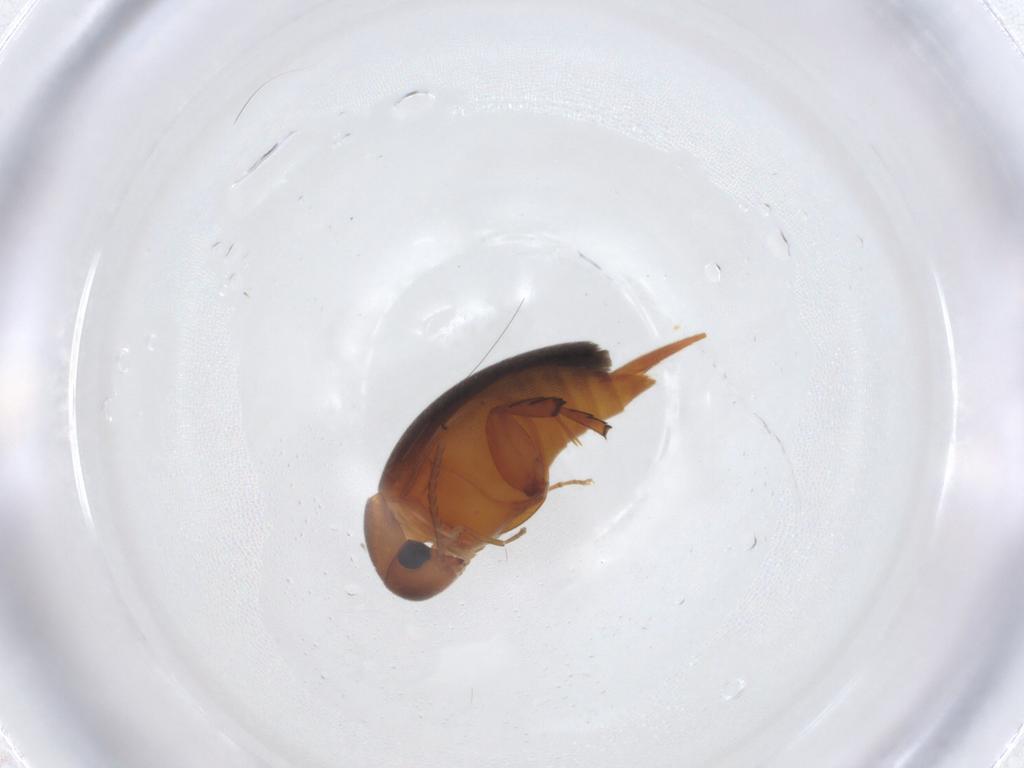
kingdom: Animalia
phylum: Arthropoda
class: Insecta
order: Coleoptera
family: Mordellidae
